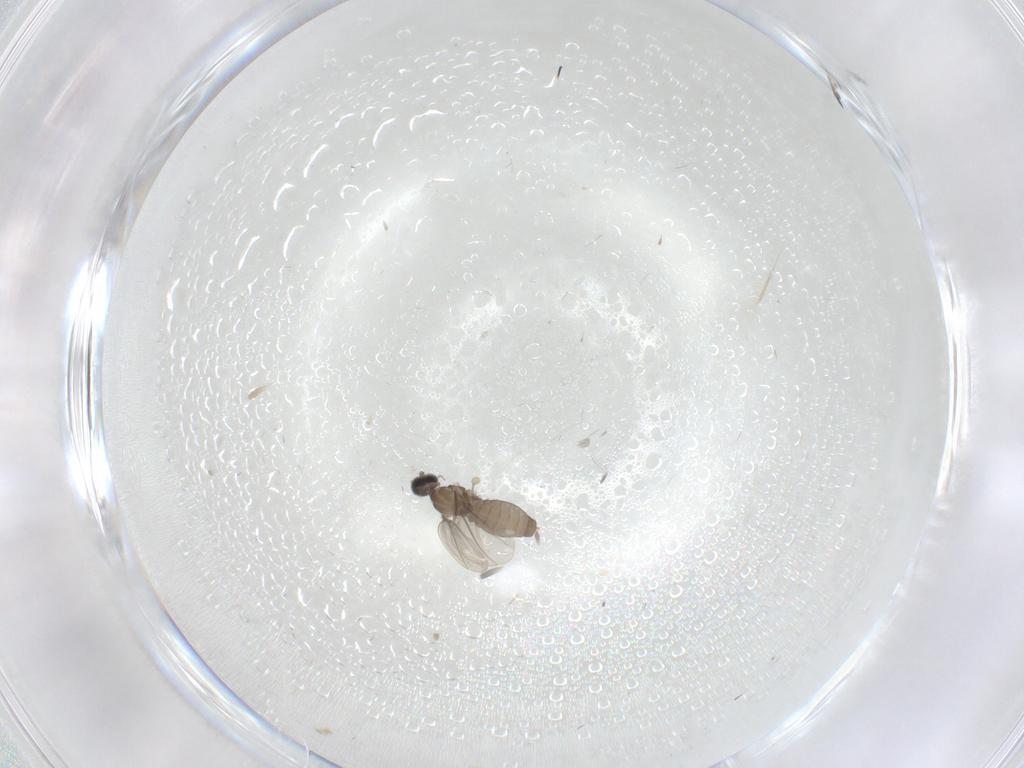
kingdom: Animalia
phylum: Arthropoda
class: Insecta
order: Diptera
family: Cecidomyiidae
